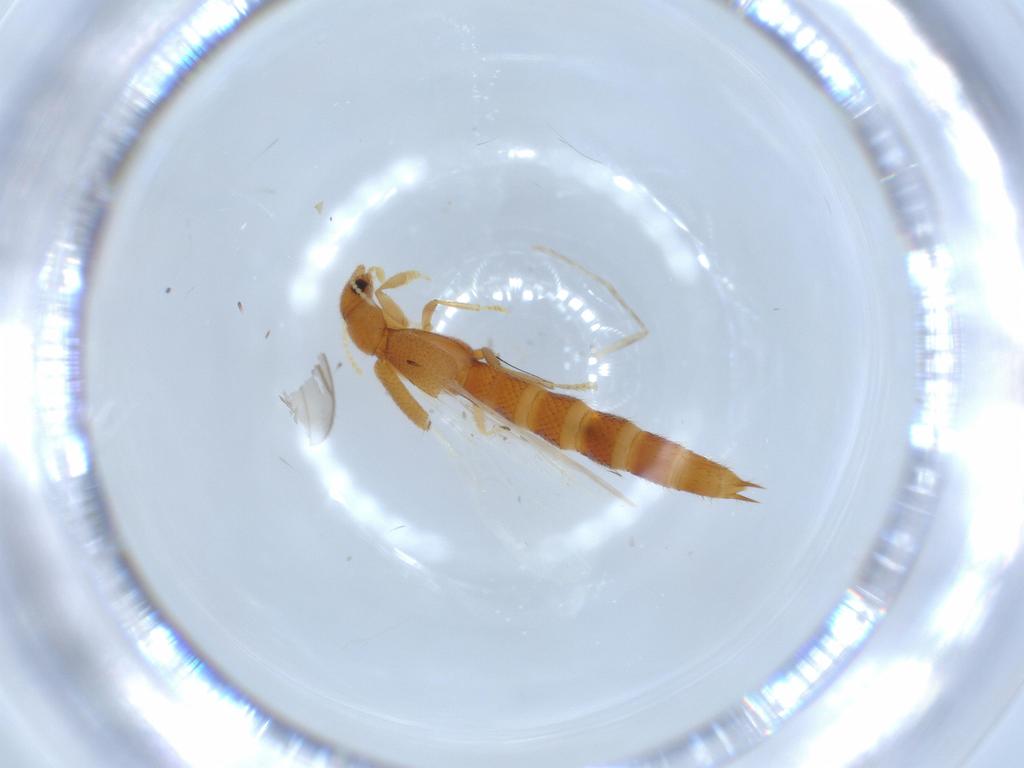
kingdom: Animalia
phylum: Arthropoda
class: Insecta
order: Coleoptera
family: Staphylinidae
